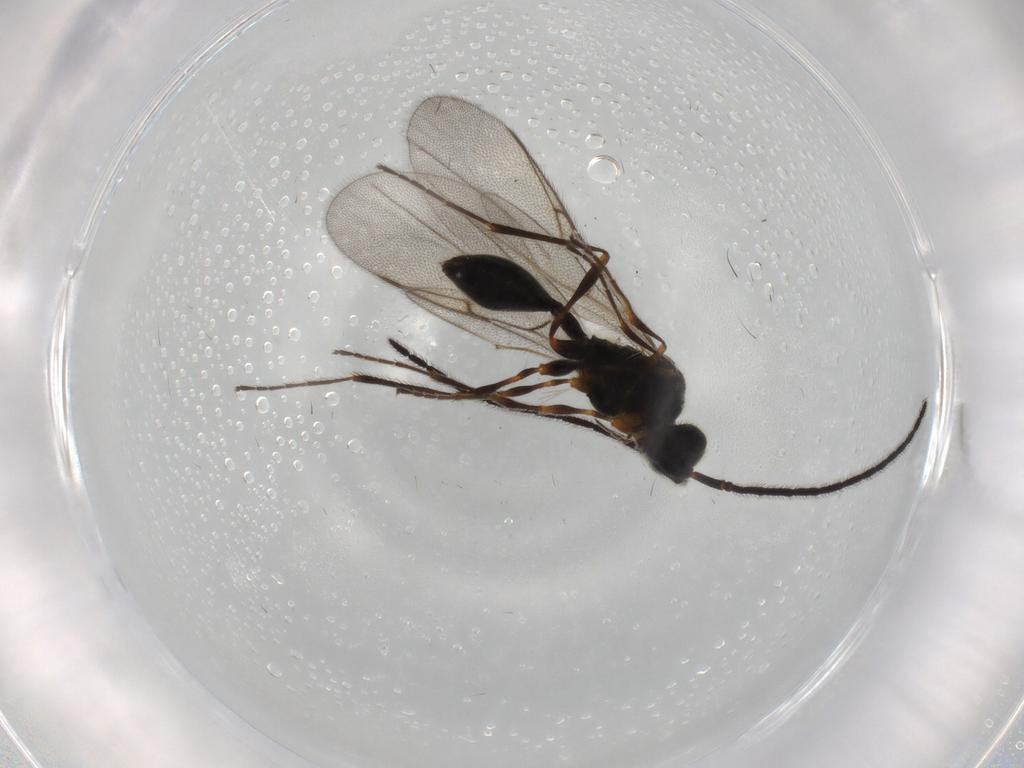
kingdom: Animalia
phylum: Arthropoda
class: Insecta
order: Hymenoptera
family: Diapriidae
